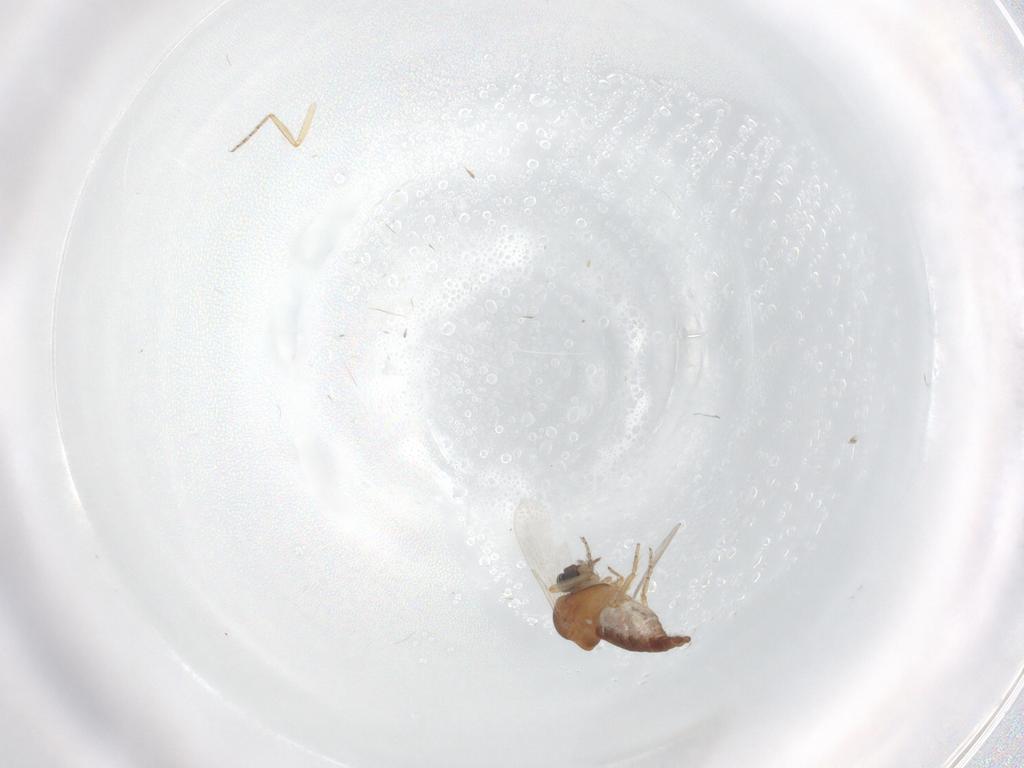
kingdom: Animalia
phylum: Arthropoda
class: Insecta
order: Diptera
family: Ceratopogonidae
